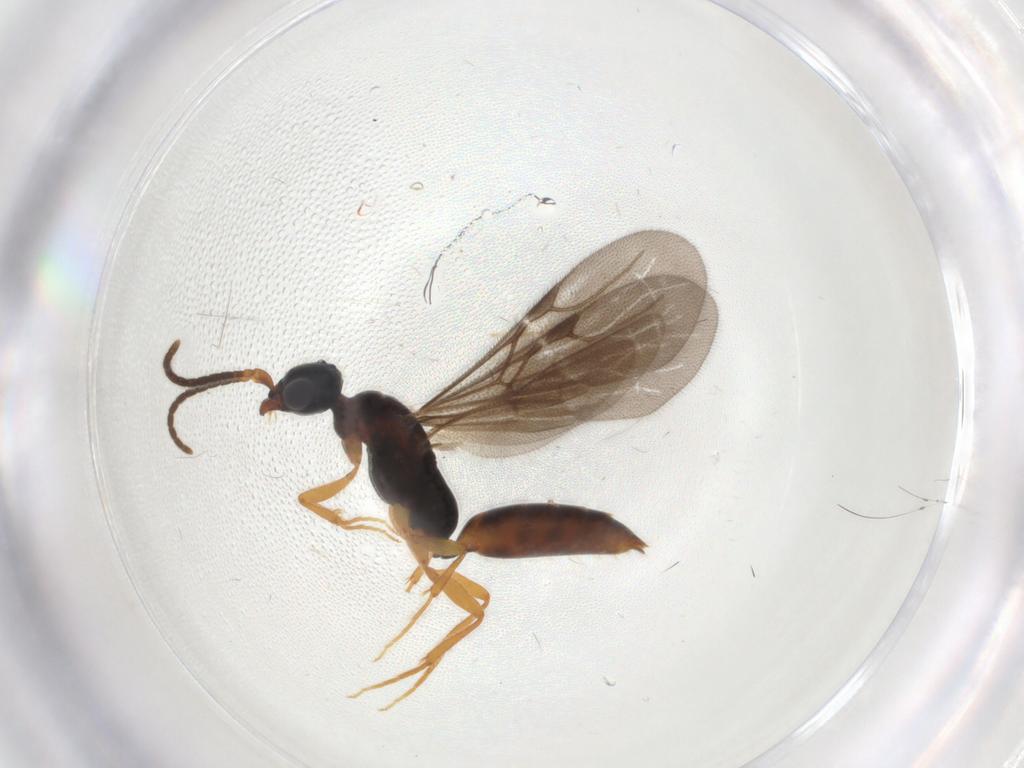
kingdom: Animalia
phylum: Arthropoda
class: Insecta
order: Hymenoptera
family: Bethylidae
